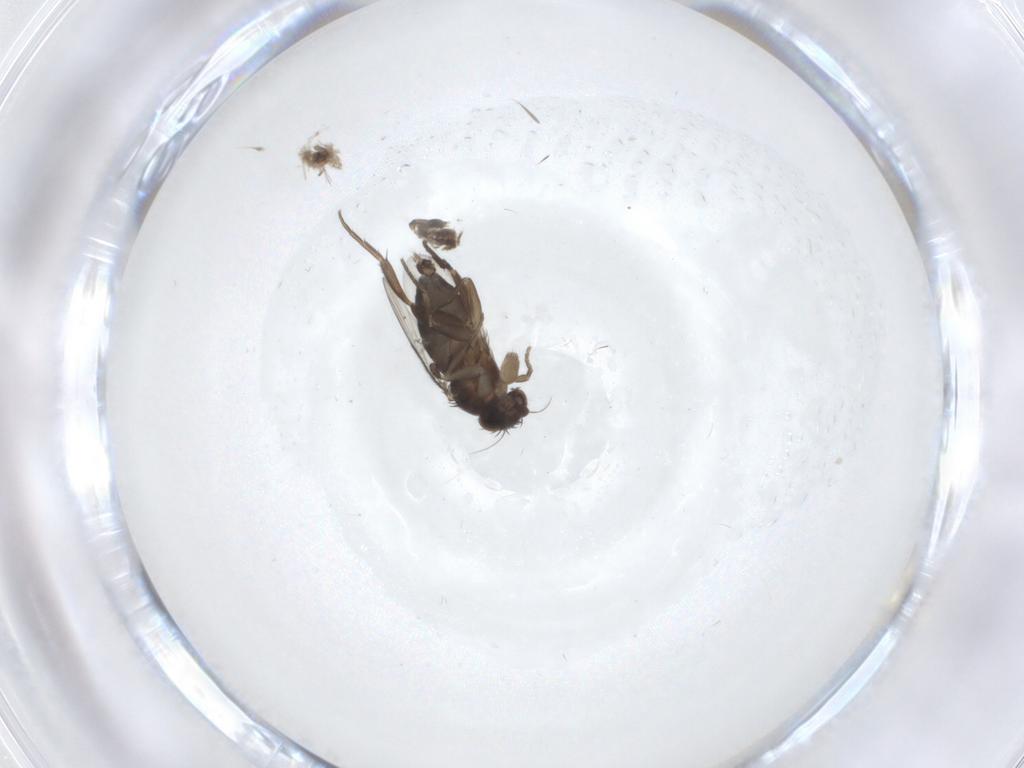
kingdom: Animalia
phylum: Arthropoda
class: Insecta
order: Diptera
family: Phoridae
